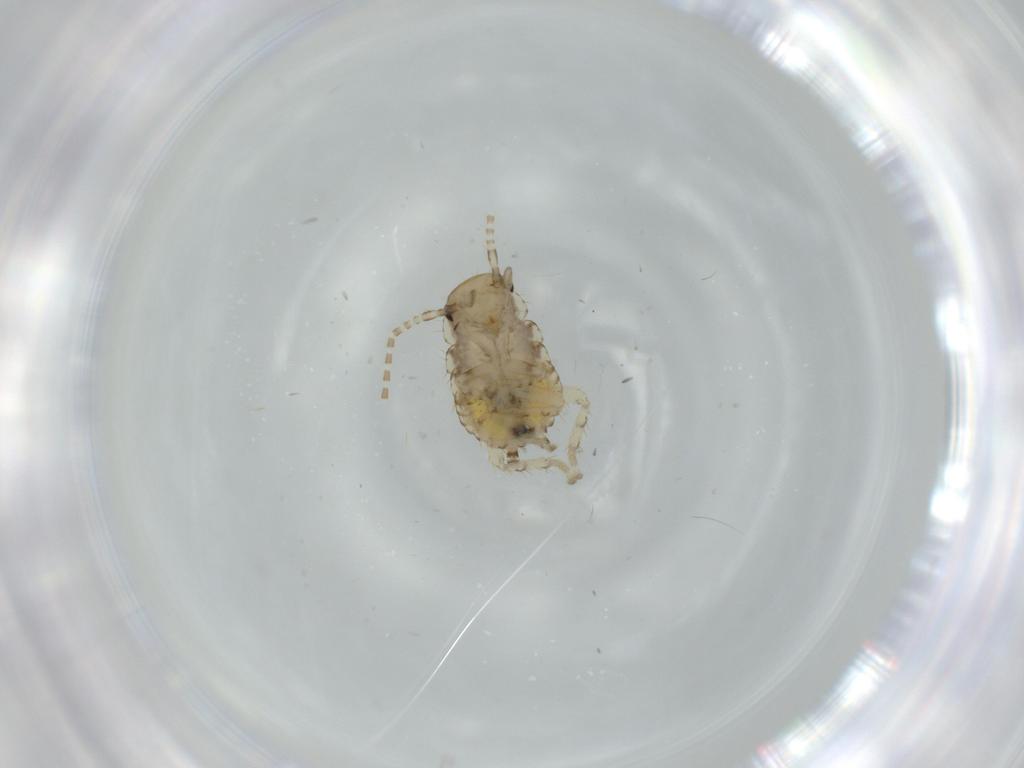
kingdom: Animalia
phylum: Arthropoda
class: Insecta
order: Blattodea
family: Ectobiidae
